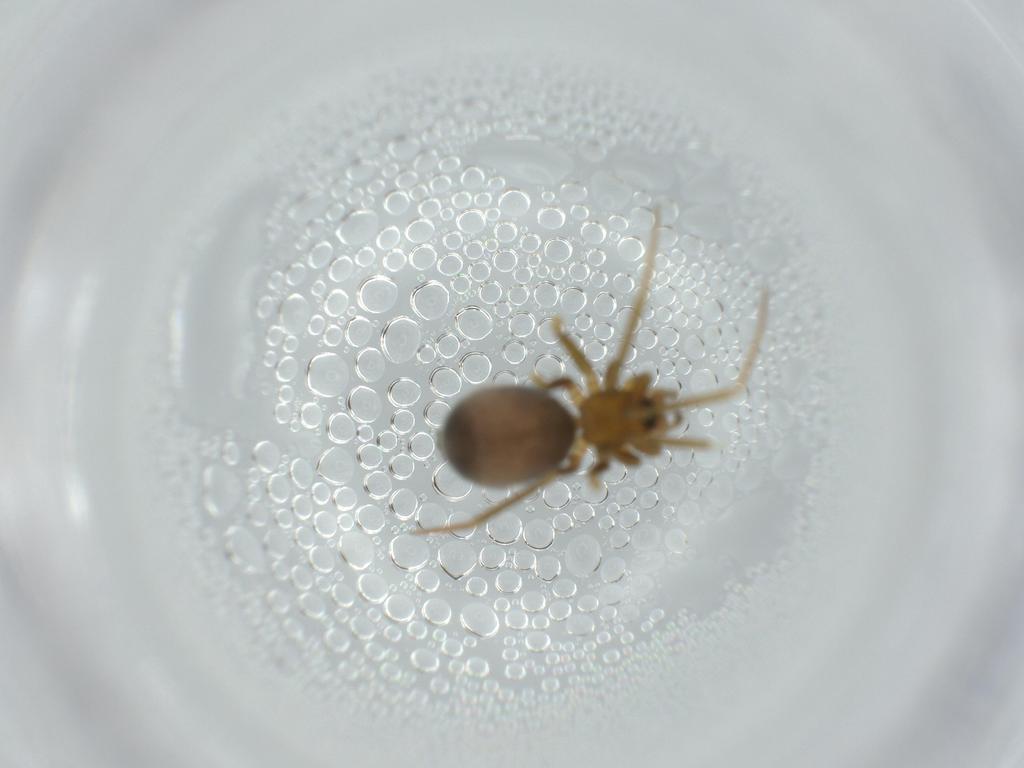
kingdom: Animalia
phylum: Arthropoda
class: Arachnida
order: Araneae
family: Linyphiidae
